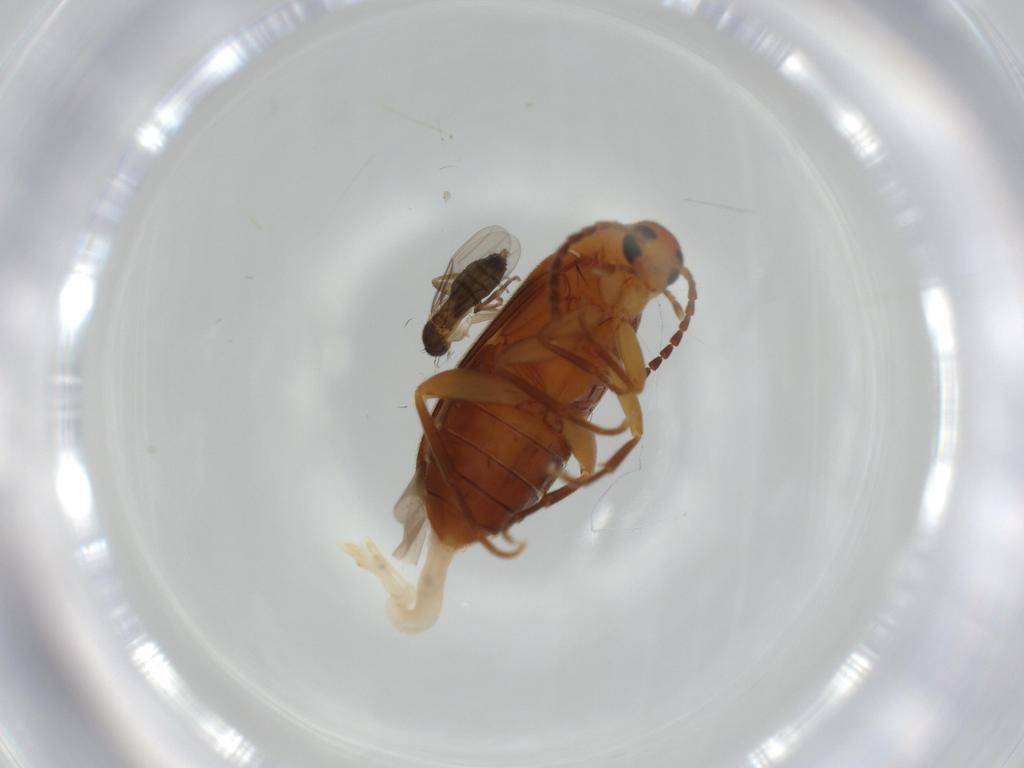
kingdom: Animalia
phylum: Arthropoda
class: Insecta
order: Coleoptera
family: Scraptiidae
